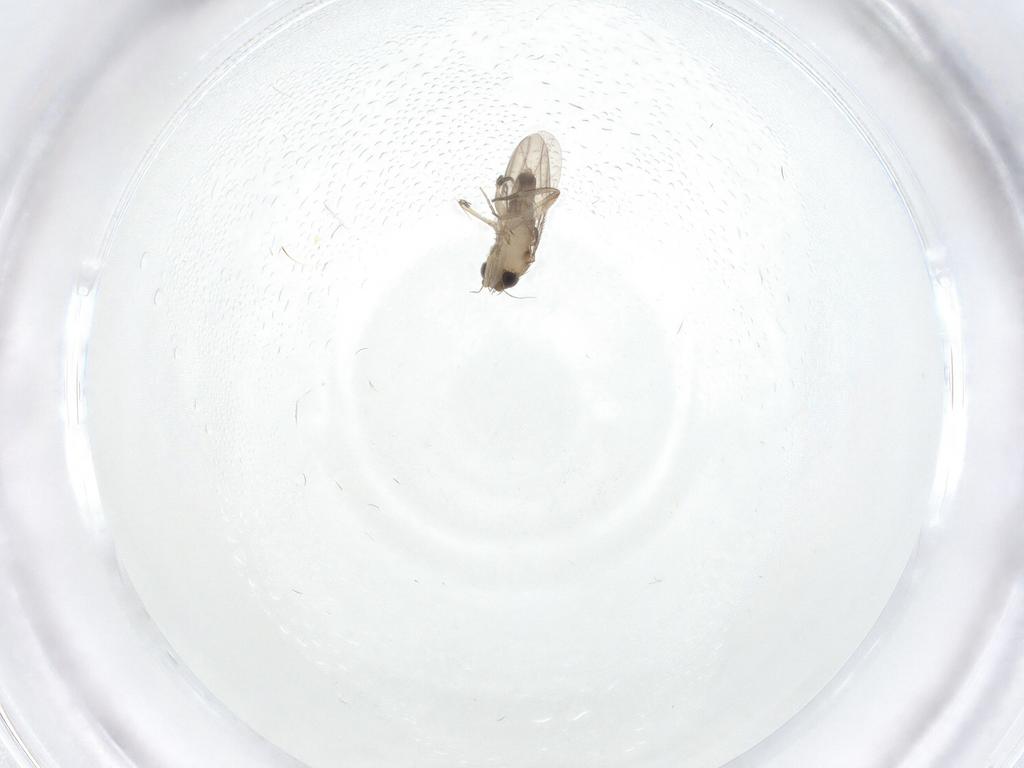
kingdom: Animalia
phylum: Arthropoda
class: Insecta
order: Diptera
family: Phoridae
